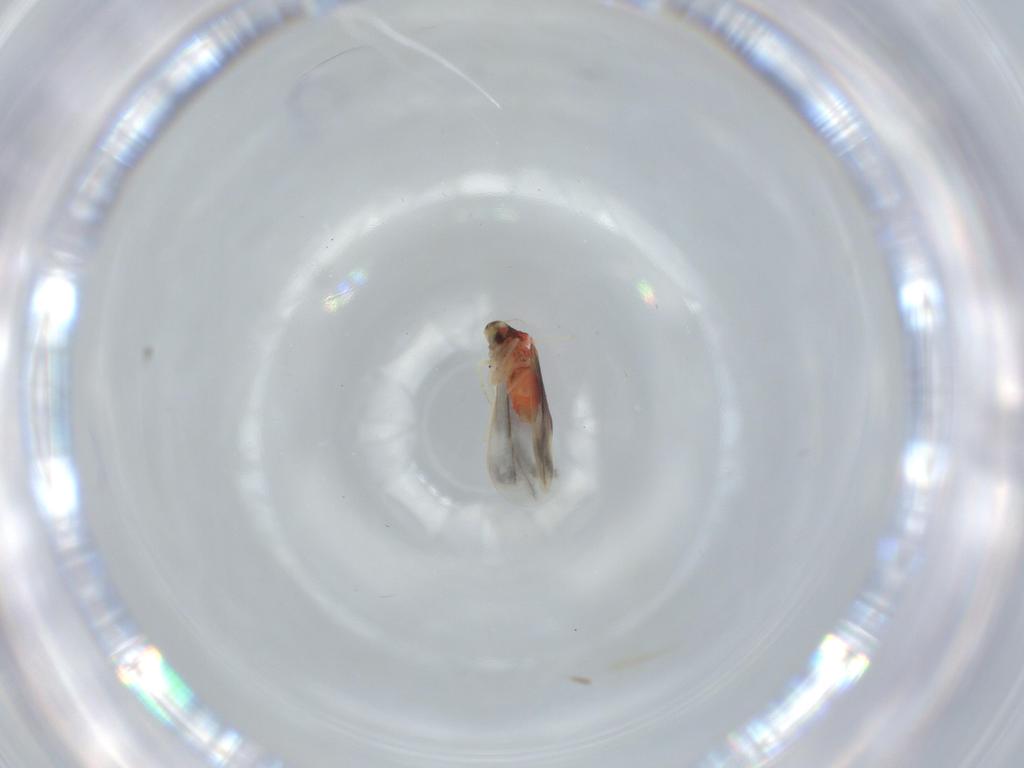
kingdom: Animalia
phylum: Arthropoda
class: Insecta
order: Hemiptera
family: Aleyrodidae
